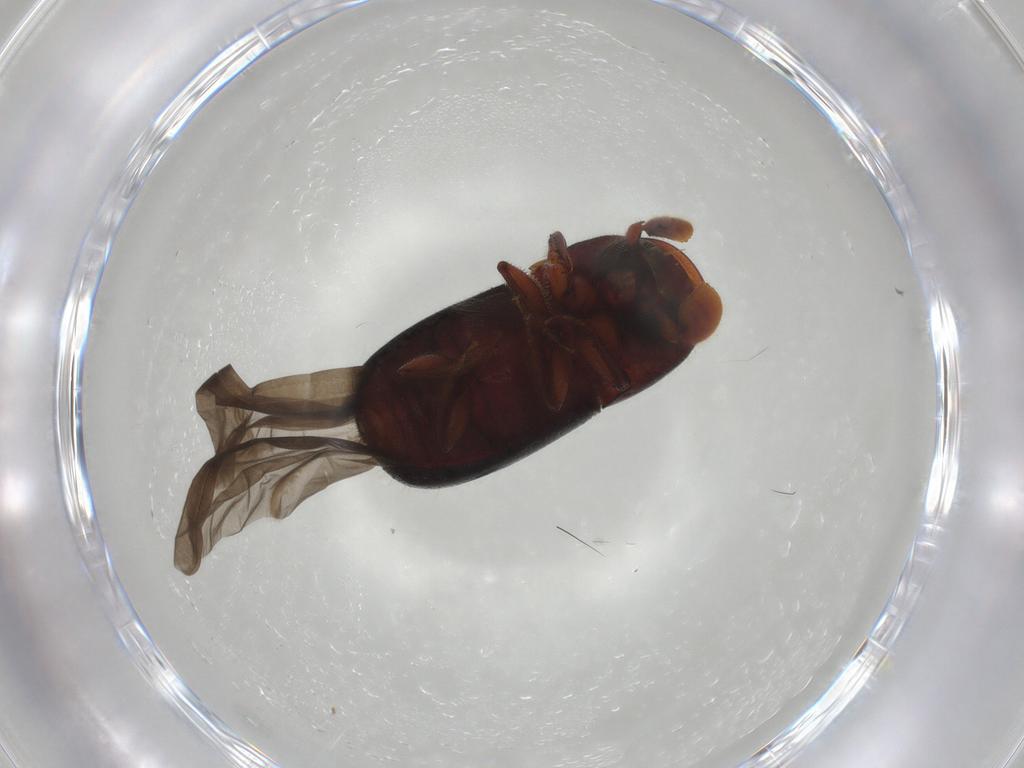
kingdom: Animalia
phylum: Arthropoda
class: Insecta
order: Coleoptera
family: Curculionidae
